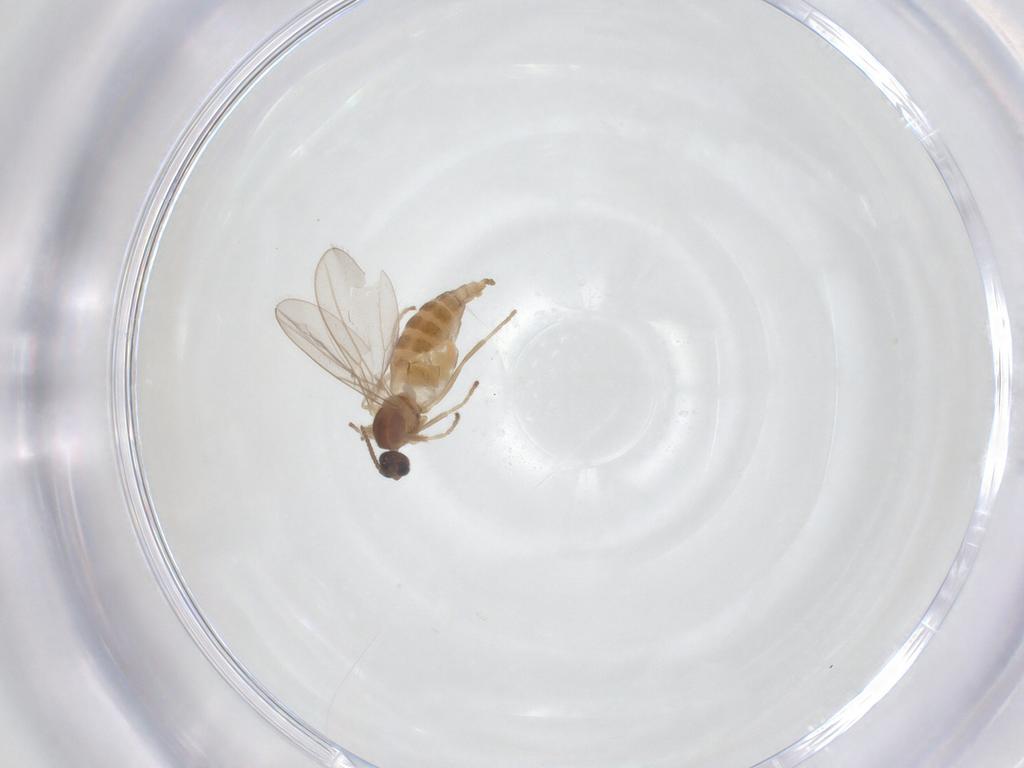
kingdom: Animalia
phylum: Arthropoda
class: Insecta
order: Diptera
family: Cecidomyiidae
